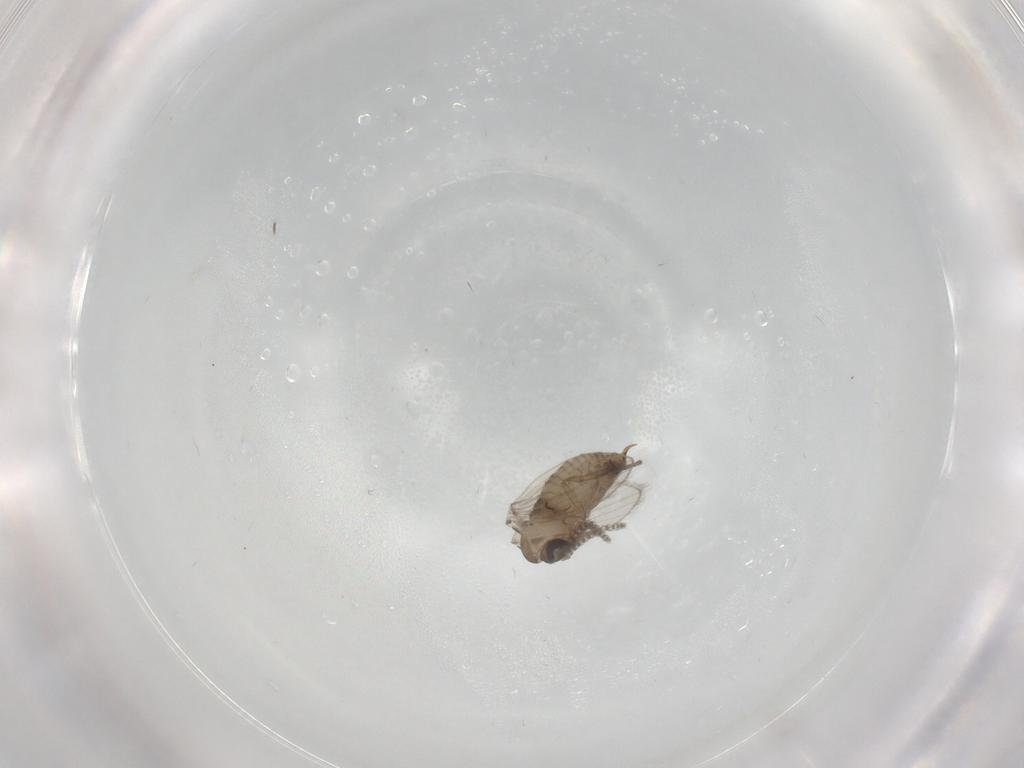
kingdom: Animalia
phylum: Arthropoda
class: Insecta
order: Diptera
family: Psychodidae
